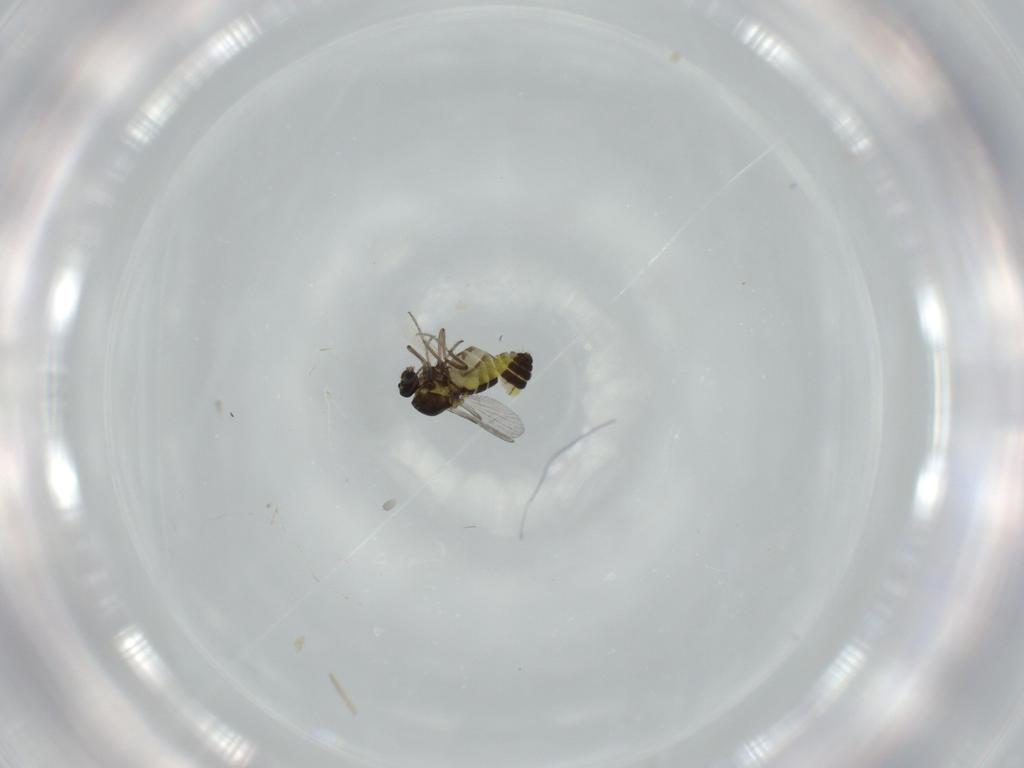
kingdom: Animalia
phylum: Arthropoda
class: Insecta
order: Diptera
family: Ceratopogonidae
